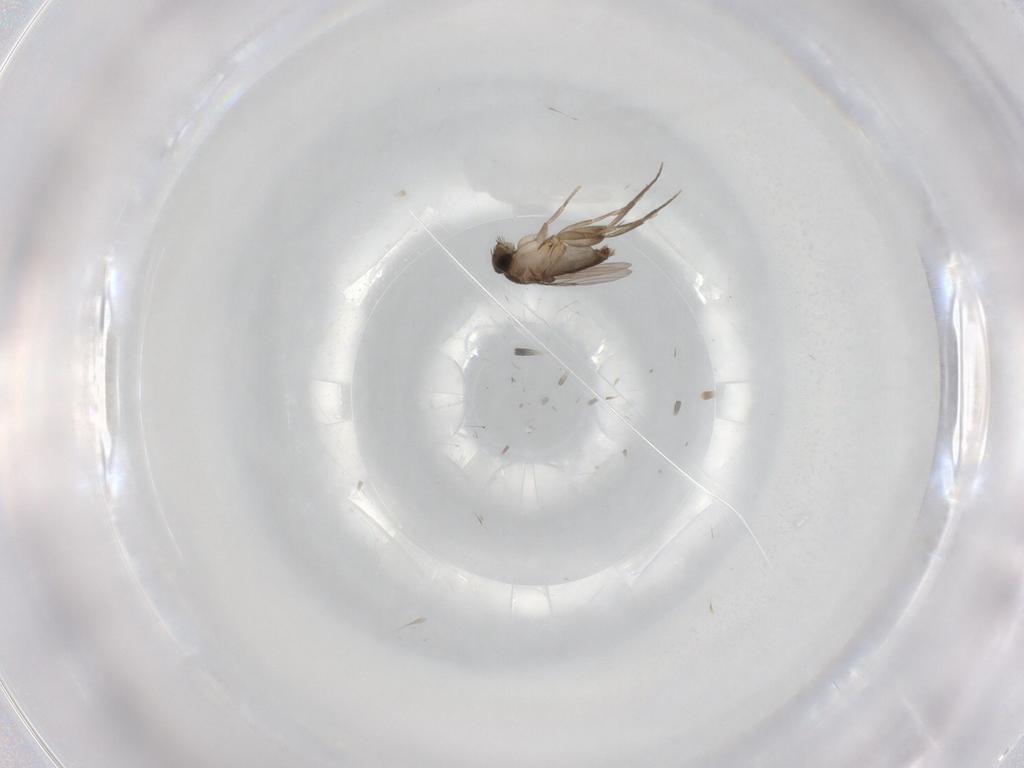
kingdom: Animalia
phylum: Arthropoda
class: Insecta
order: Diptera
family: Phoridae
